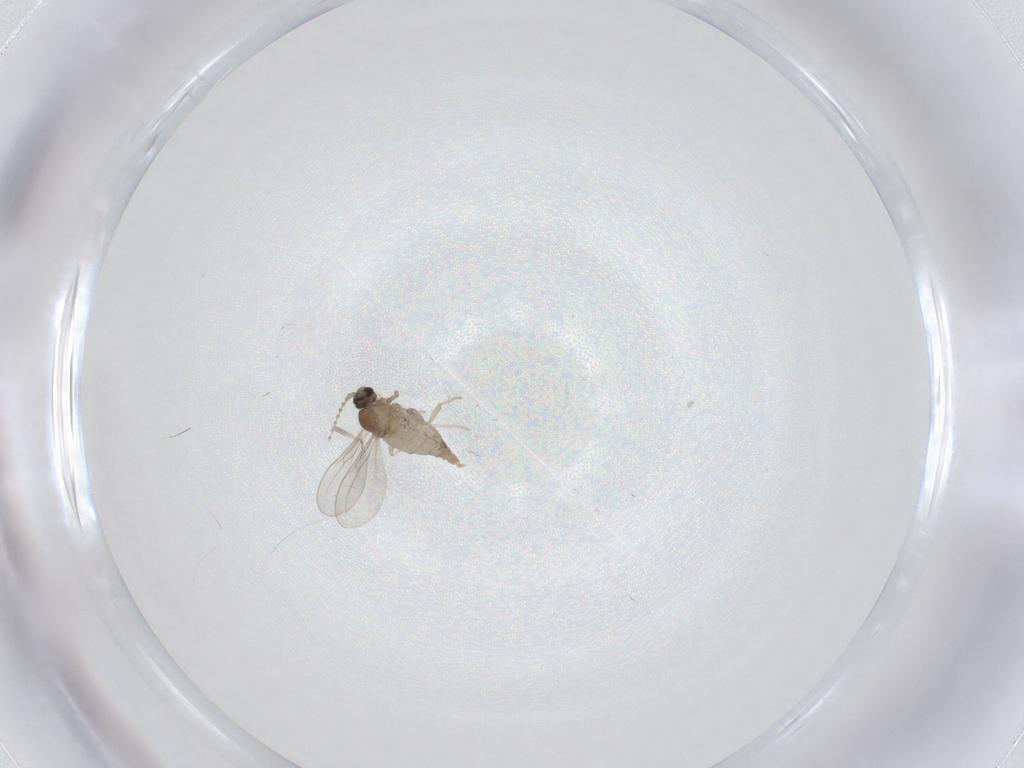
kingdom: Animalia
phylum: Arthropoda
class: Insecta
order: Diptera
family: Cecidomyiidae
